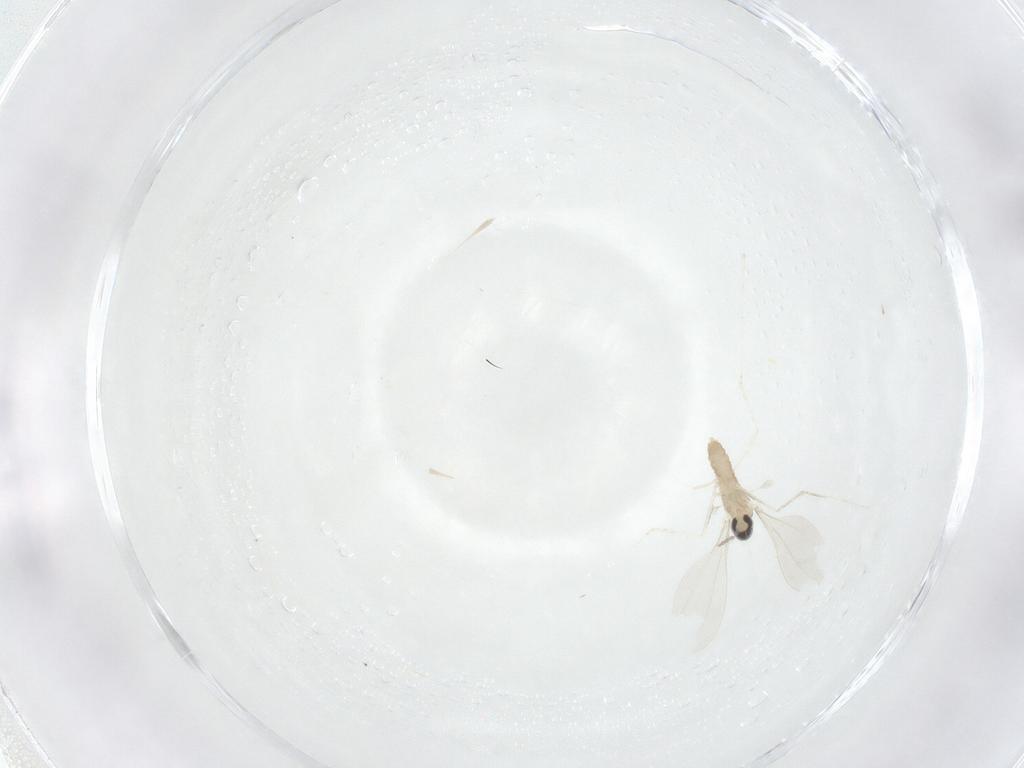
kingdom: Animalia
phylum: Arthropoda
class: Insecta
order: Diptera
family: Cecidomyiidae
